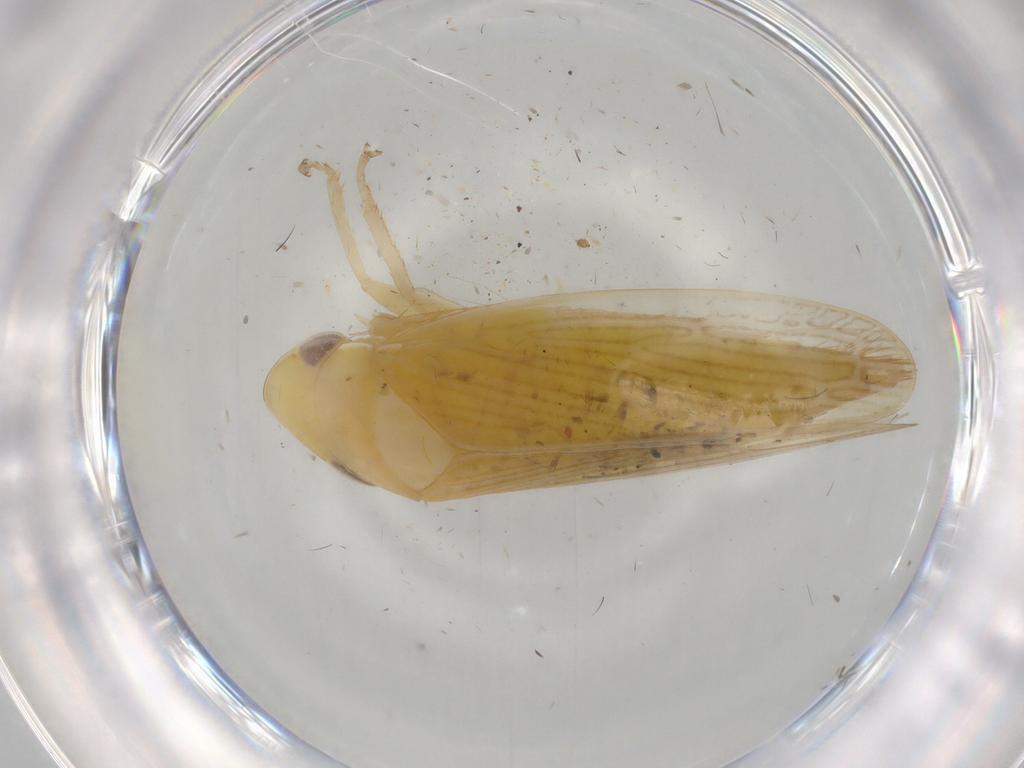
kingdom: Animalia
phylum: Arthropoda
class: Insecta
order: Hemiptera
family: Cicadellidae
